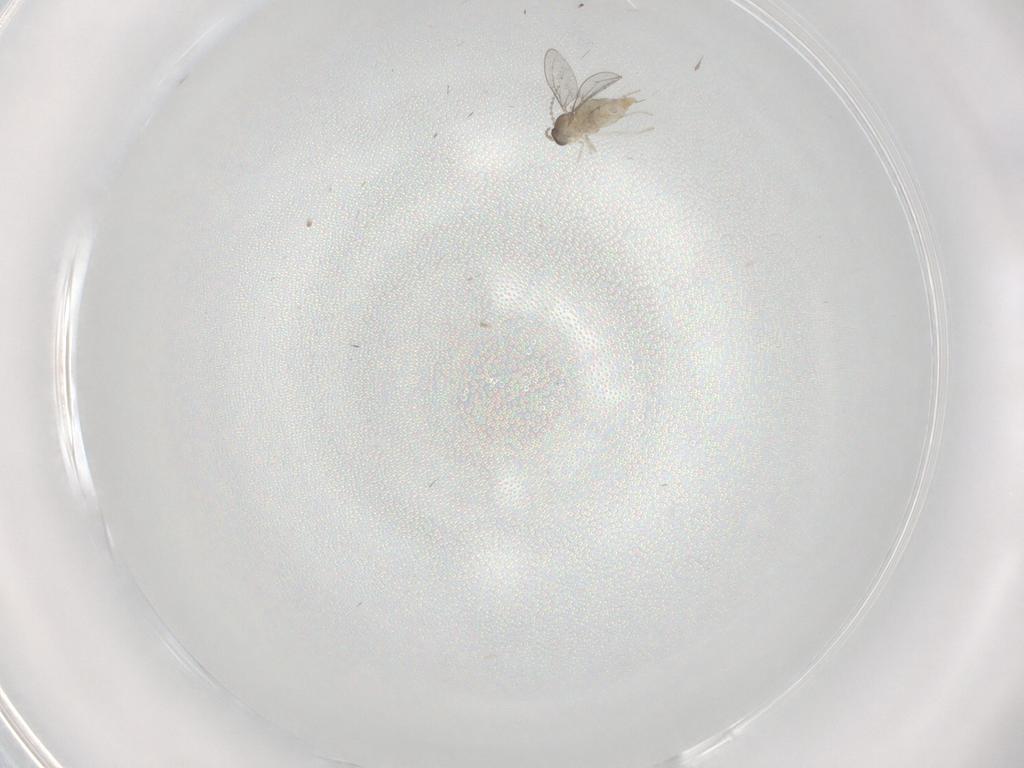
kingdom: Animalia
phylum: Arthropoda
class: Insecta
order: Diptera
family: Cecidomyiidae
